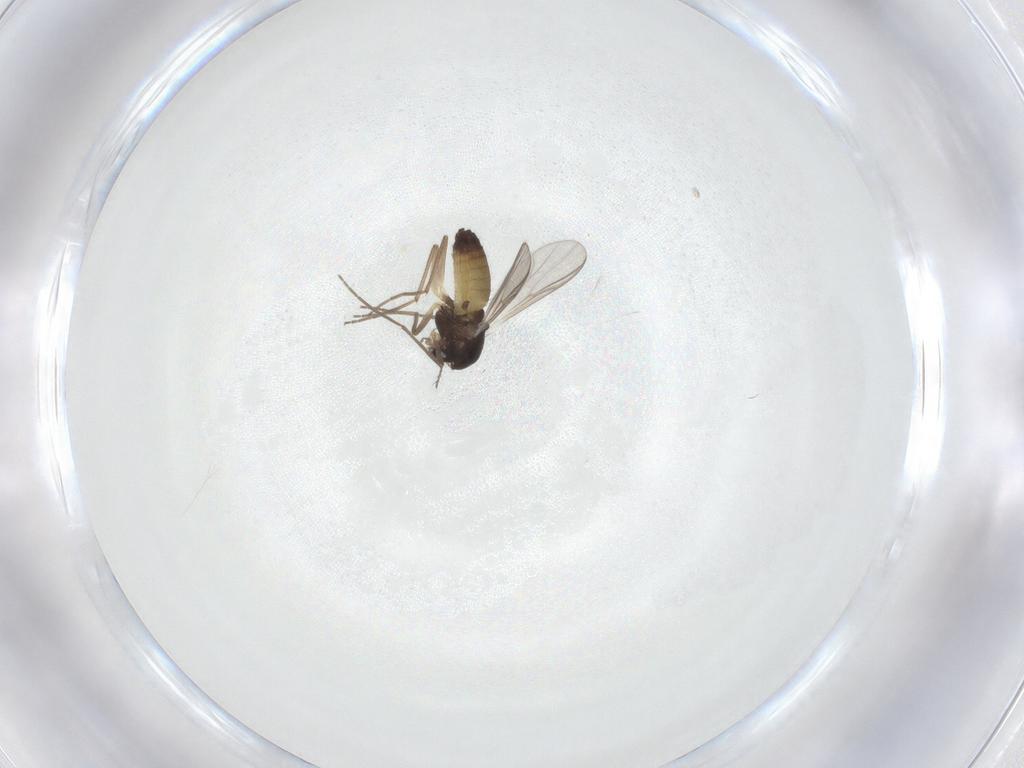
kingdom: Animalia
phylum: Arthropoda
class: Insecta
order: Diptera
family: Chironomidae
